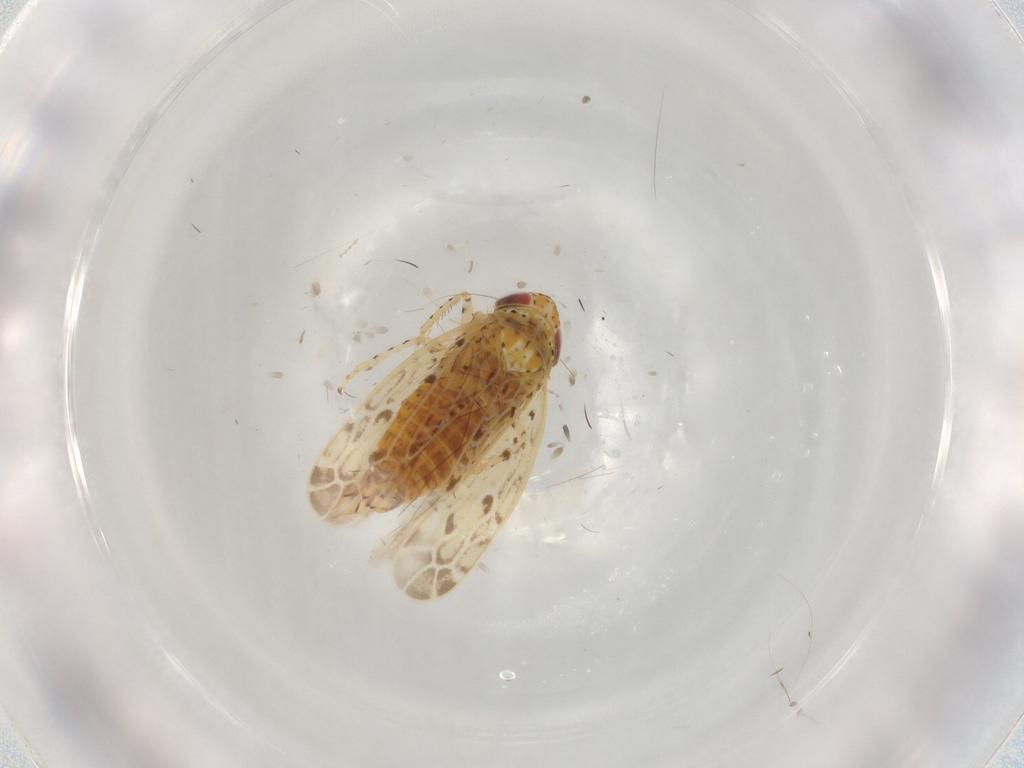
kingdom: Animalia
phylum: Arthropoda
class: Insecta
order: Hemiptera
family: Cicadellidae
